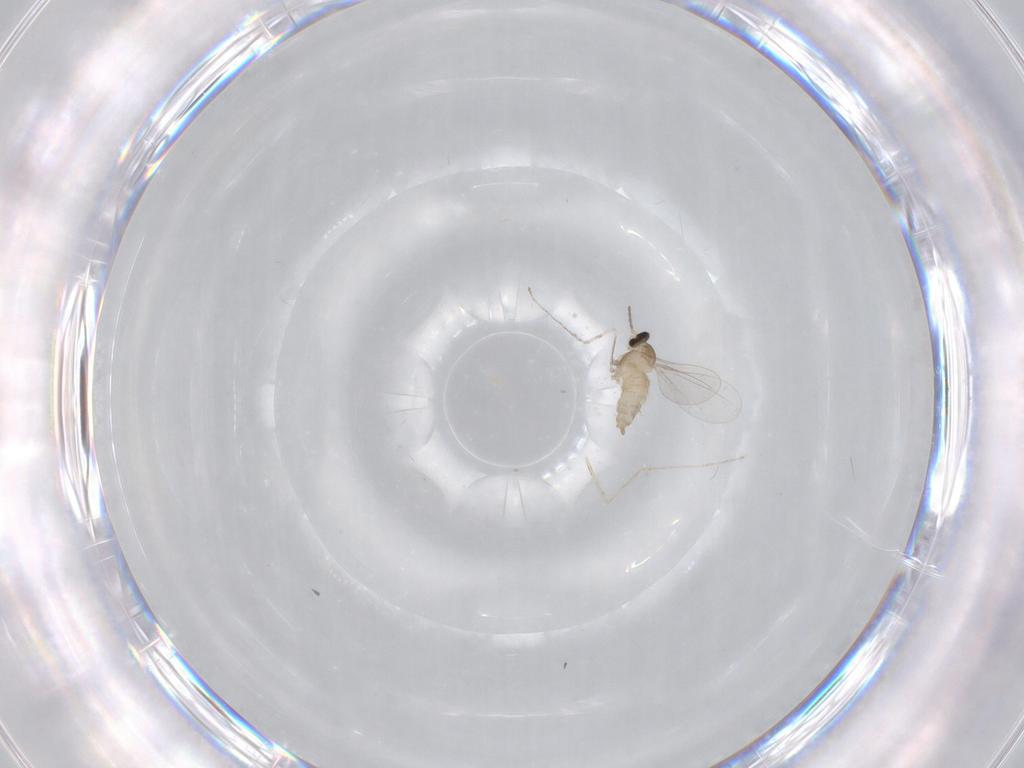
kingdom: Animalia
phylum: Arthropoda
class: Insecta
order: Diptera
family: Cecidomyiidae
